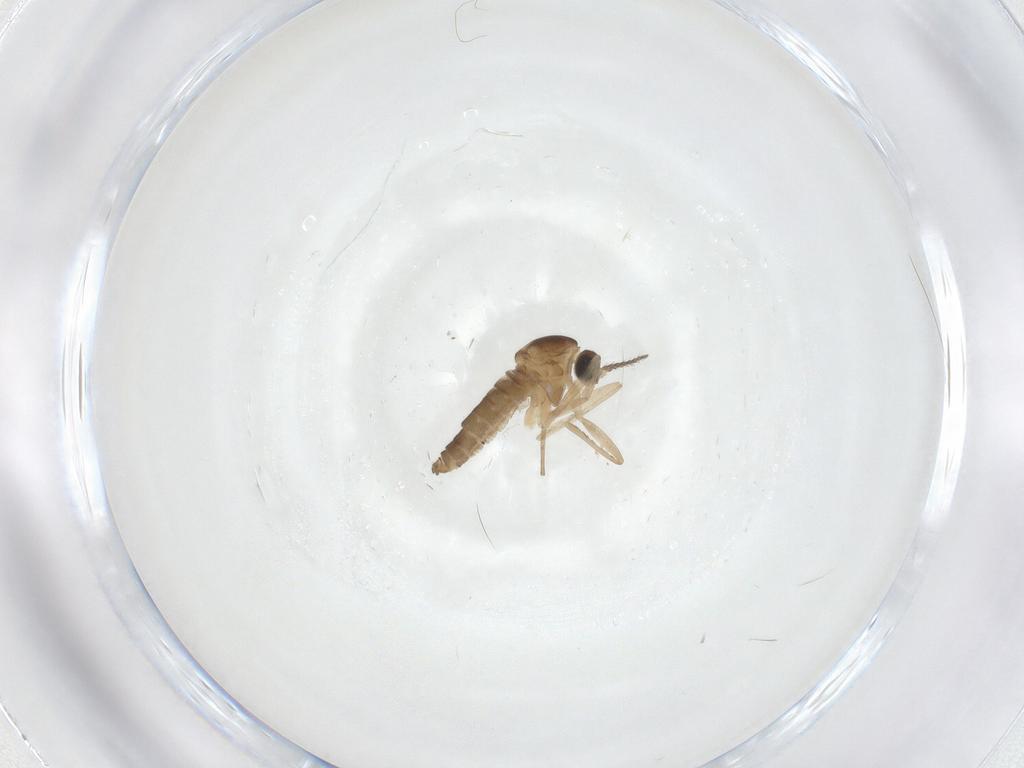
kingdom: Animalia
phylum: Arthropoda
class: Insecta
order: Diptera
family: Cecidomyiidae
